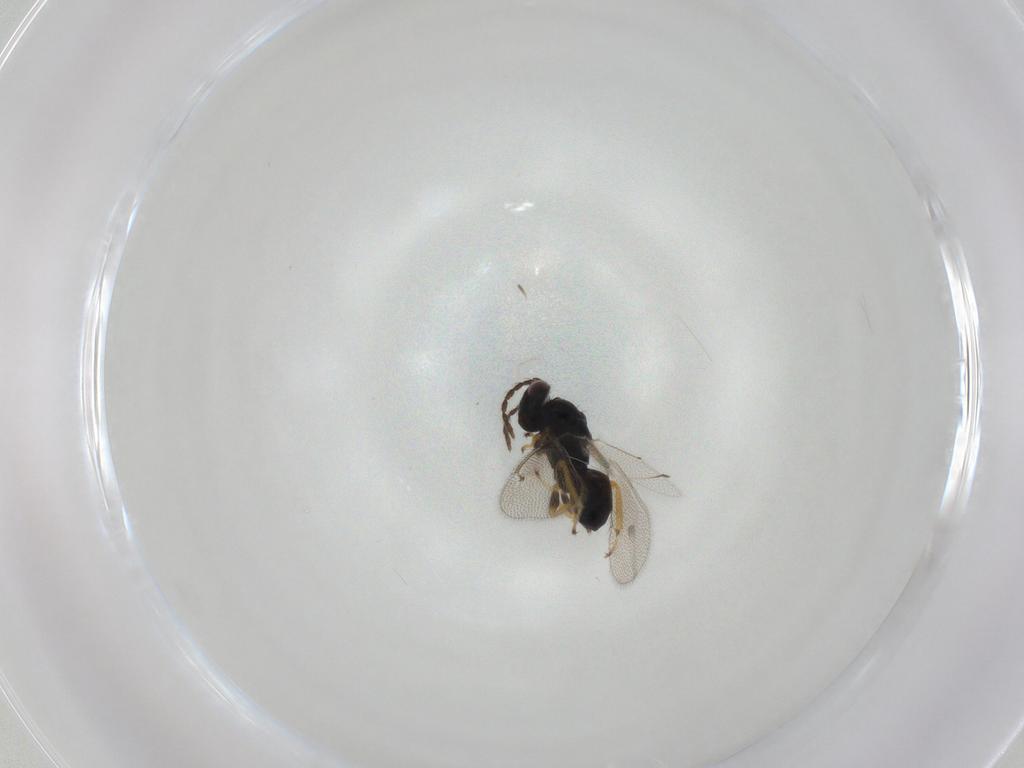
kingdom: Animalia
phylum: Arthropoda
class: Insecta
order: Hymenoptera
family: Eulophidae
